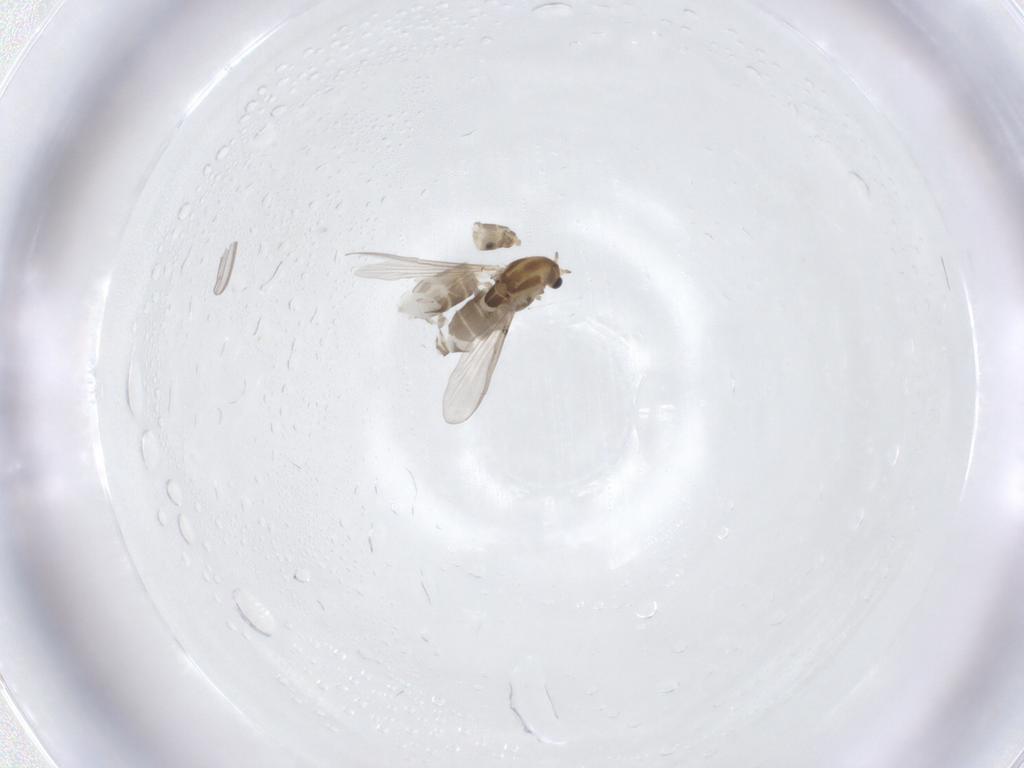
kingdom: Animalia
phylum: Arthropoda
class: Insecta
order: Diptera
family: Chironomidae
